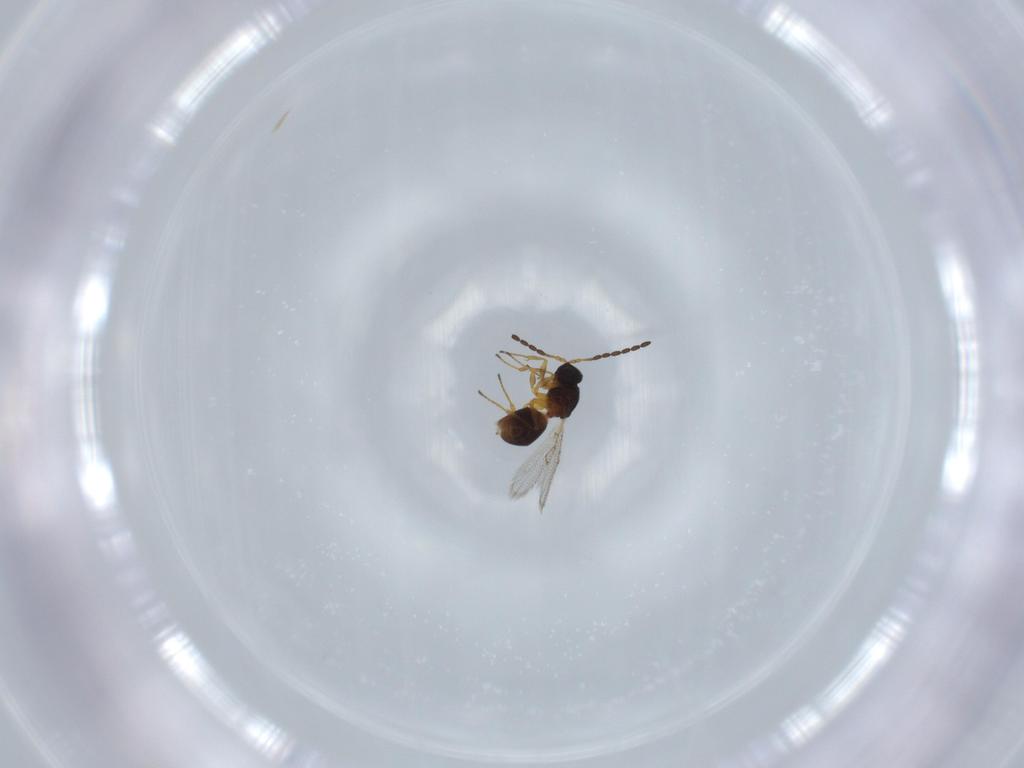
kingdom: Animalia
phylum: Arthropoda
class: Insecta
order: Hymenoptera
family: Figitidae
